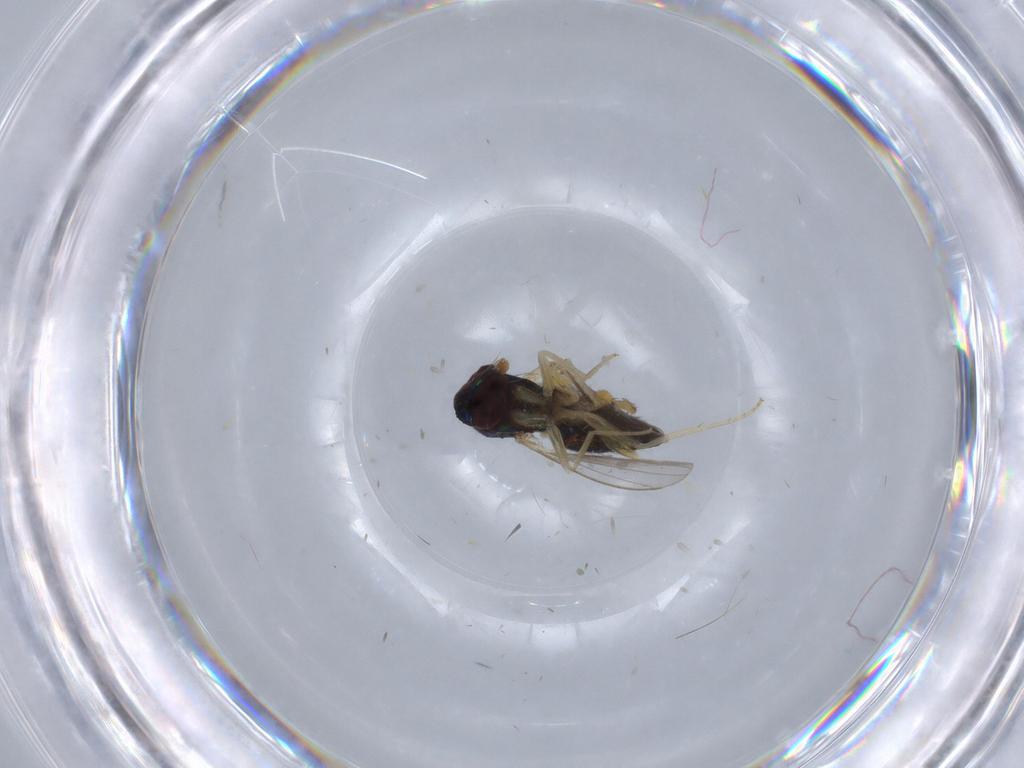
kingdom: Animalia
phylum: Arthropoda
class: Insecta
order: Diptera
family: Dolichopodidae
